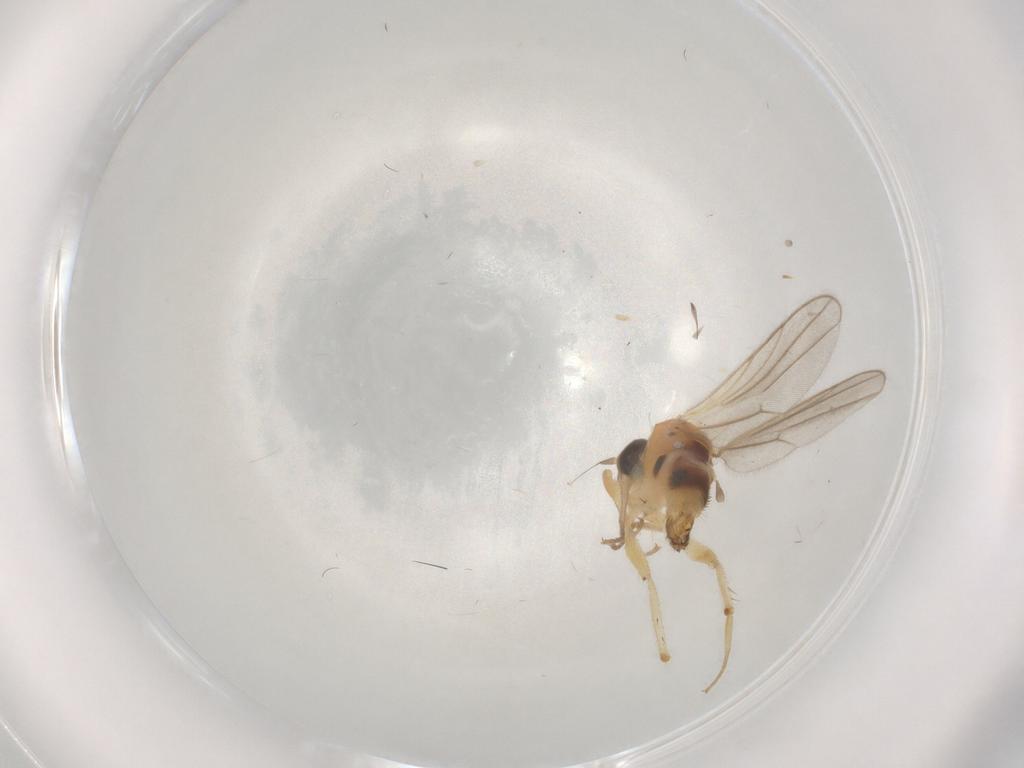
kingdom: Animalia
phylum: Arthropoda
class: Insecta
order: Diptera
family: Hybotidae
